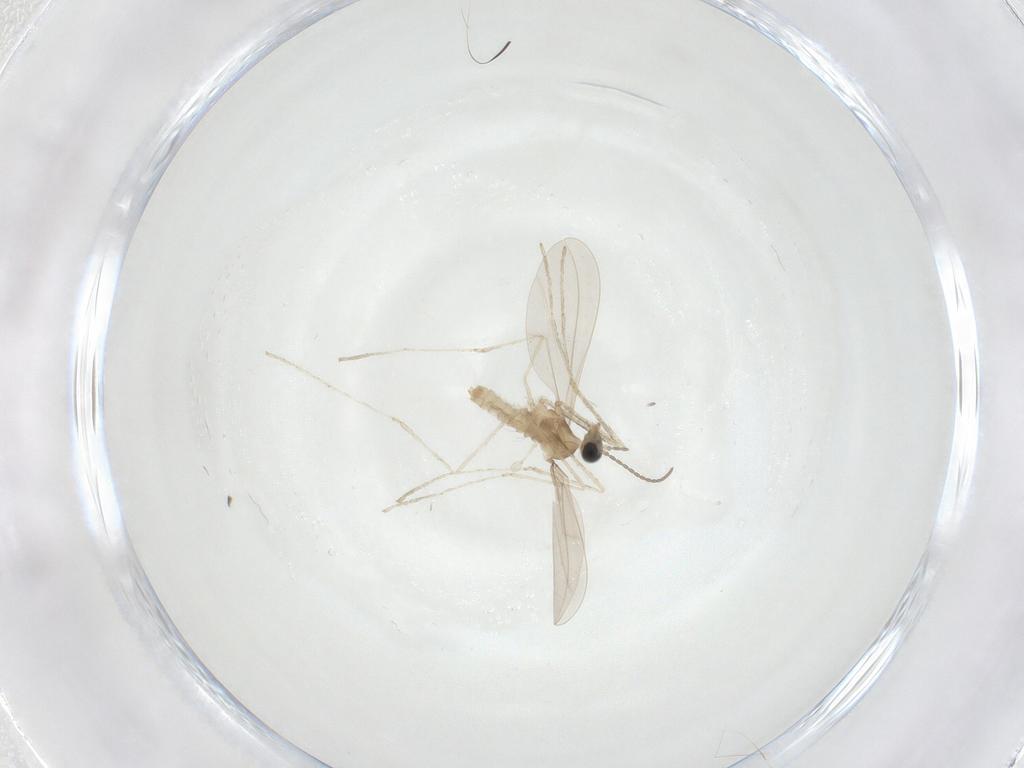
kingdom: Animalia
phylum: Arthropoda
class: Insecta
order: Diptera
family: Cecidomyiidae
